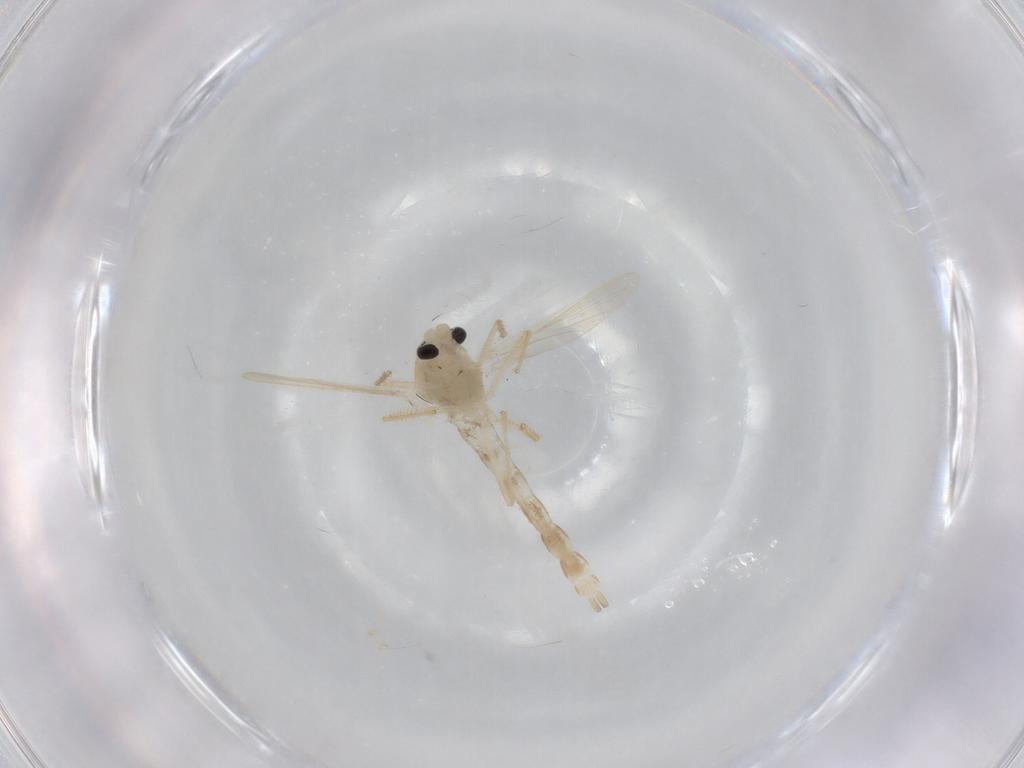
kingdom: Animalia
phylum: Arthropoda
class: Insecta
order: Diptera
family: Chironomidae
